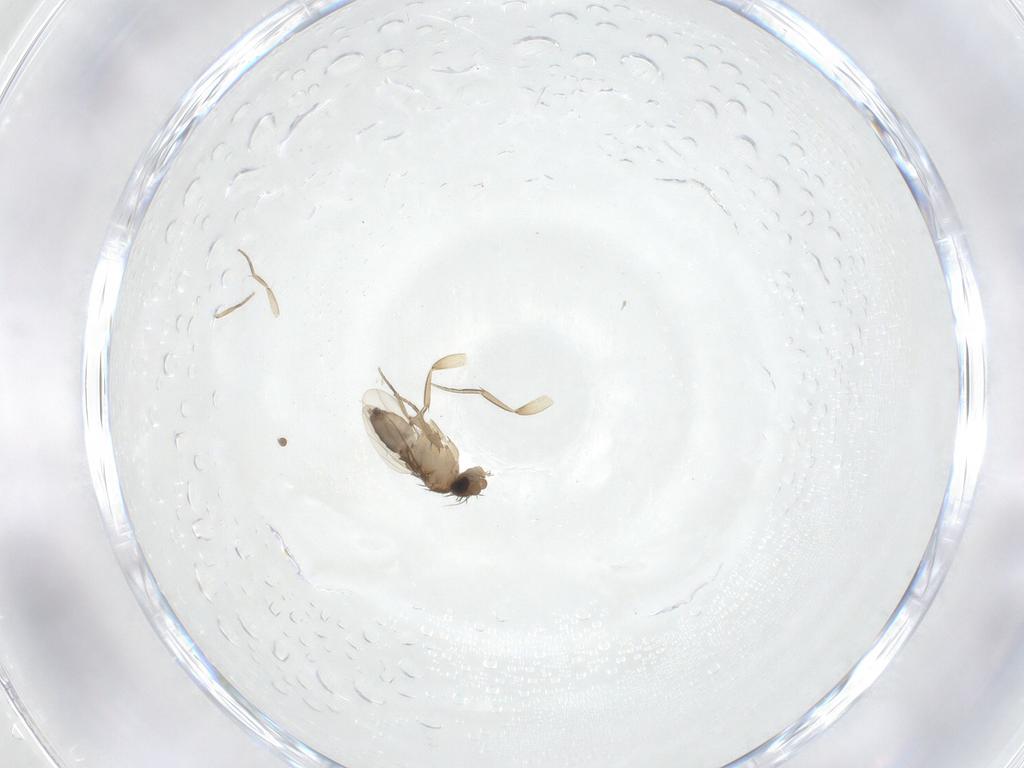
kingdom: Animalia
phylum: Arthropoda
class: Insecta
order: Diptera
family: Phoridae
